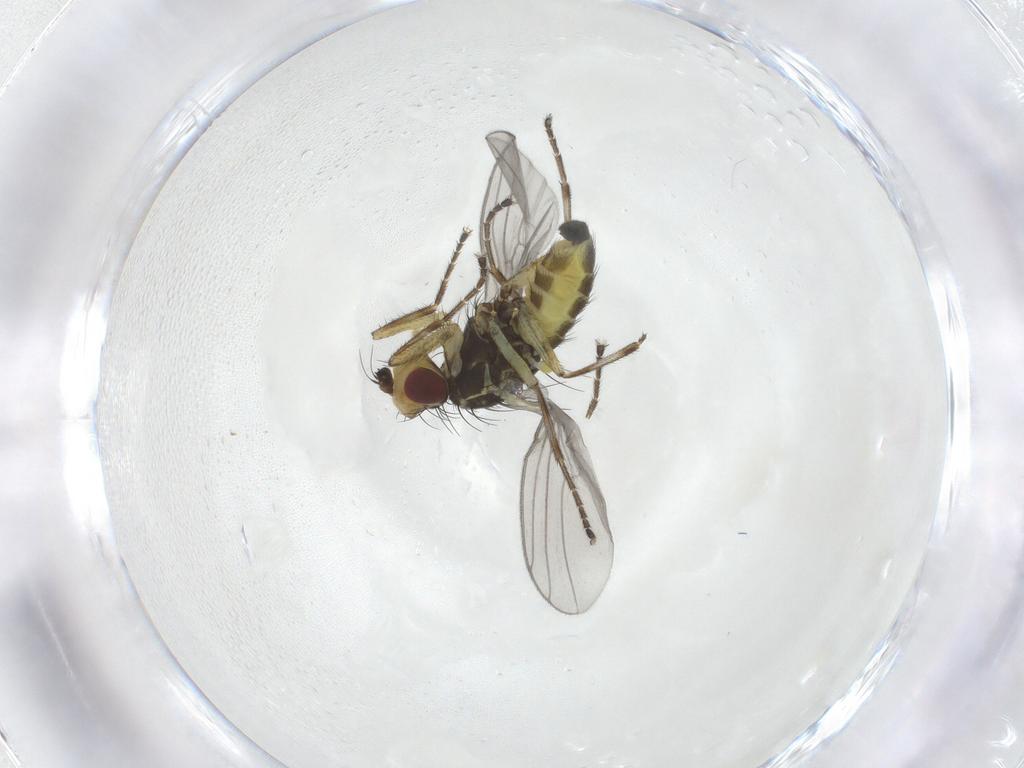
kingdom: Animalia
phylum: Arthropoda
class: Insecta
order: Diptera
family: Agromyzidae
